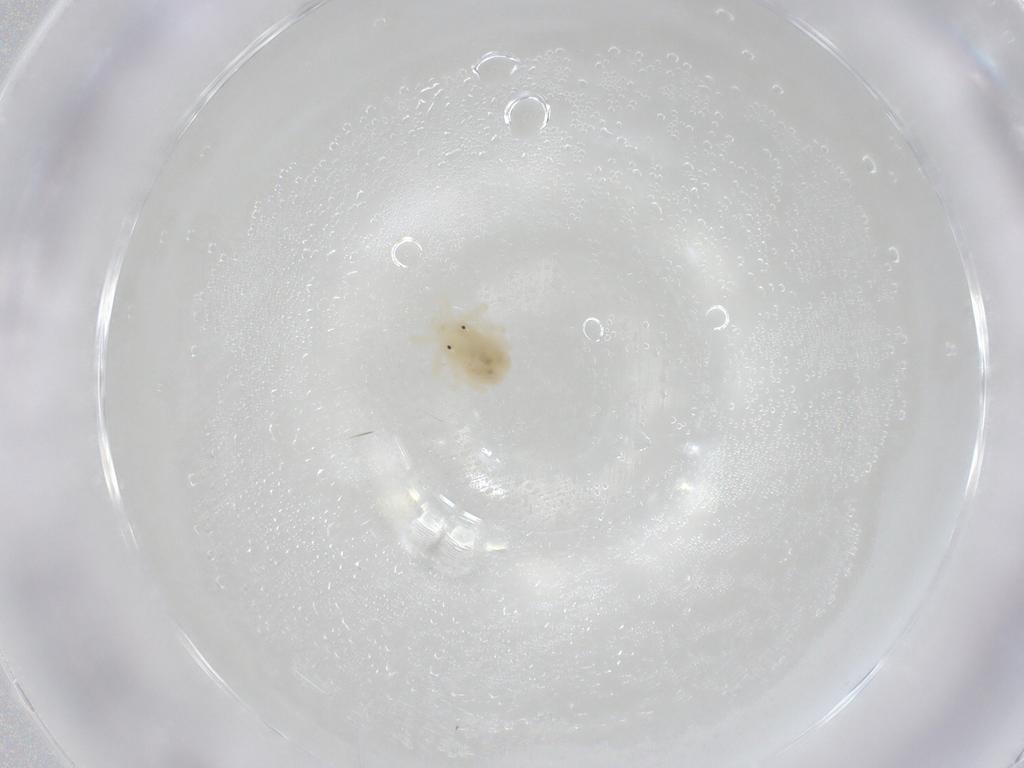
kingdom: Animalia
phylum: Arthropoda
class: Arachnida
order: Trombidiformes
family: Anystidae
